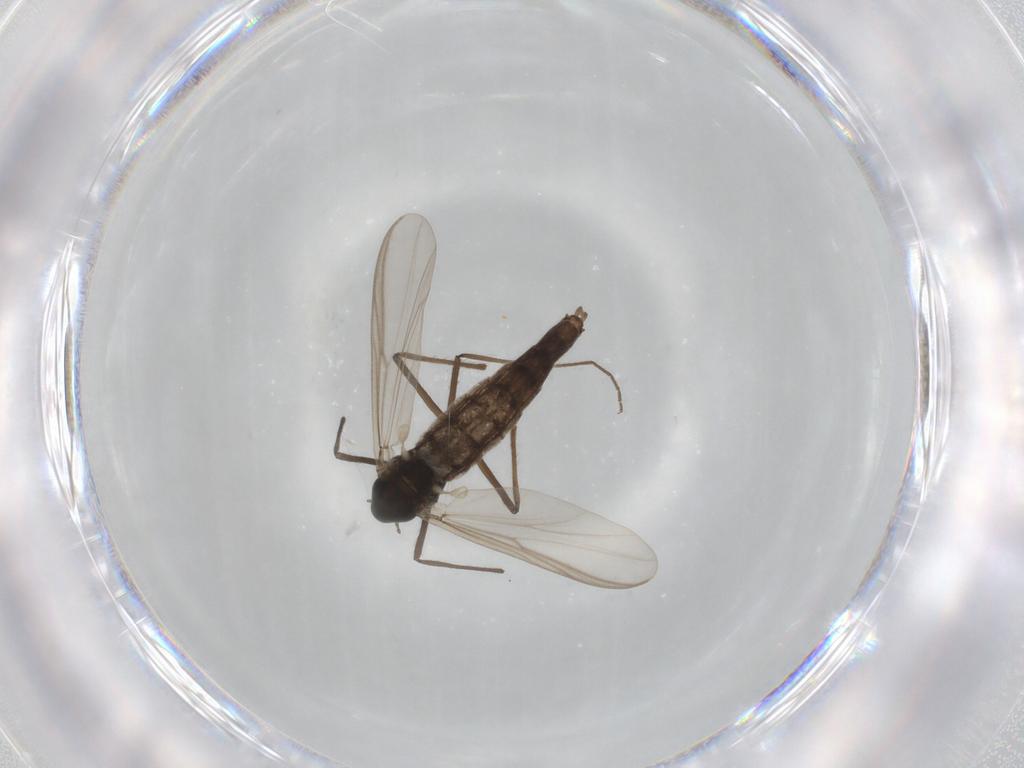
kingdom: Animalia
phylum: Arthropoda
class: Insecta
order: Diptera
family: Chironomidae
